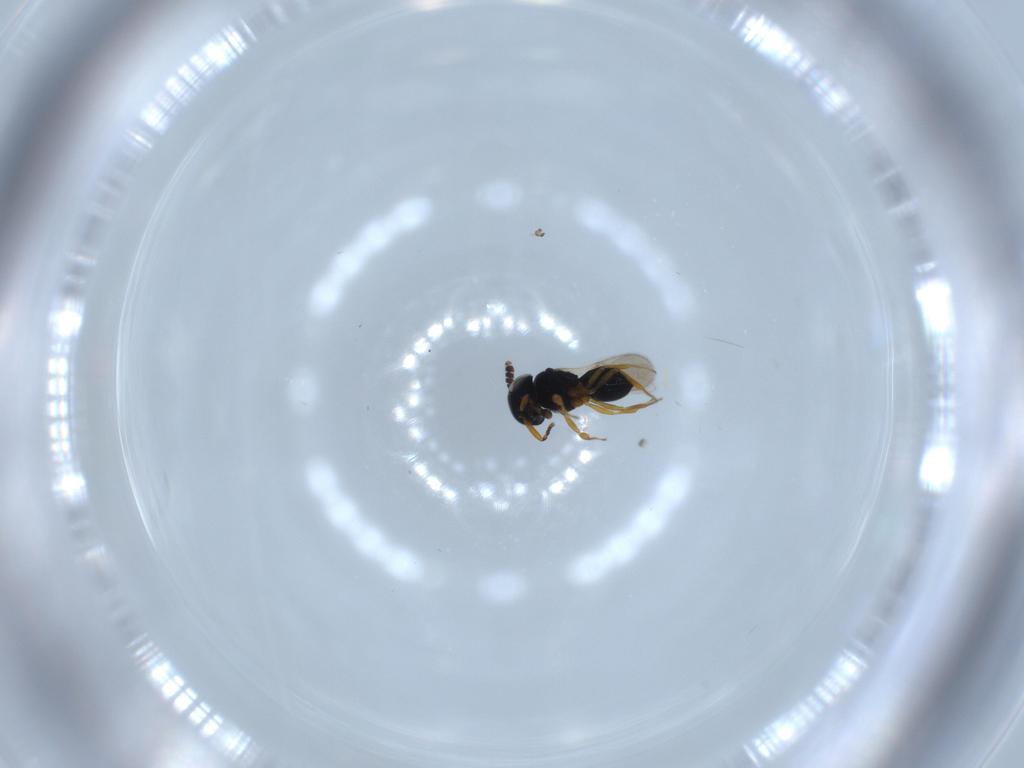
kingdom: Animalia
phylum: Arthropoda
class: Insecta
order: Hymenoptera
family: Scelionidae
